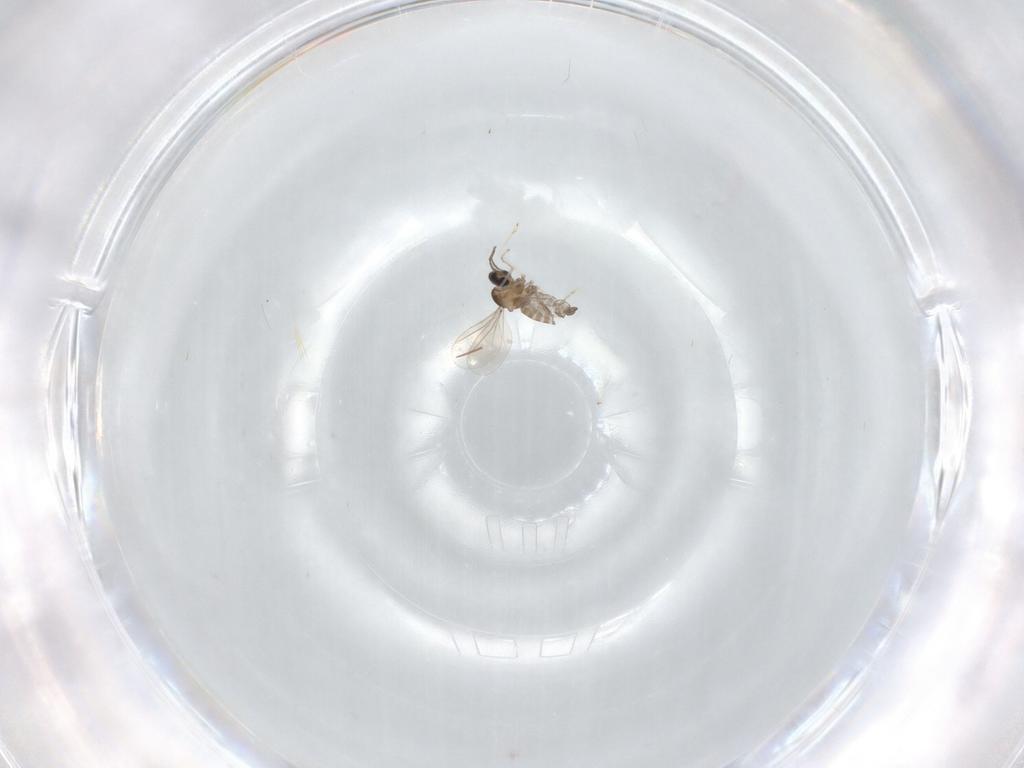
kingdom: Animalia
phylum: Arthropoda
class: Insecta
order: Diptera
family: Cecidomyiidae
